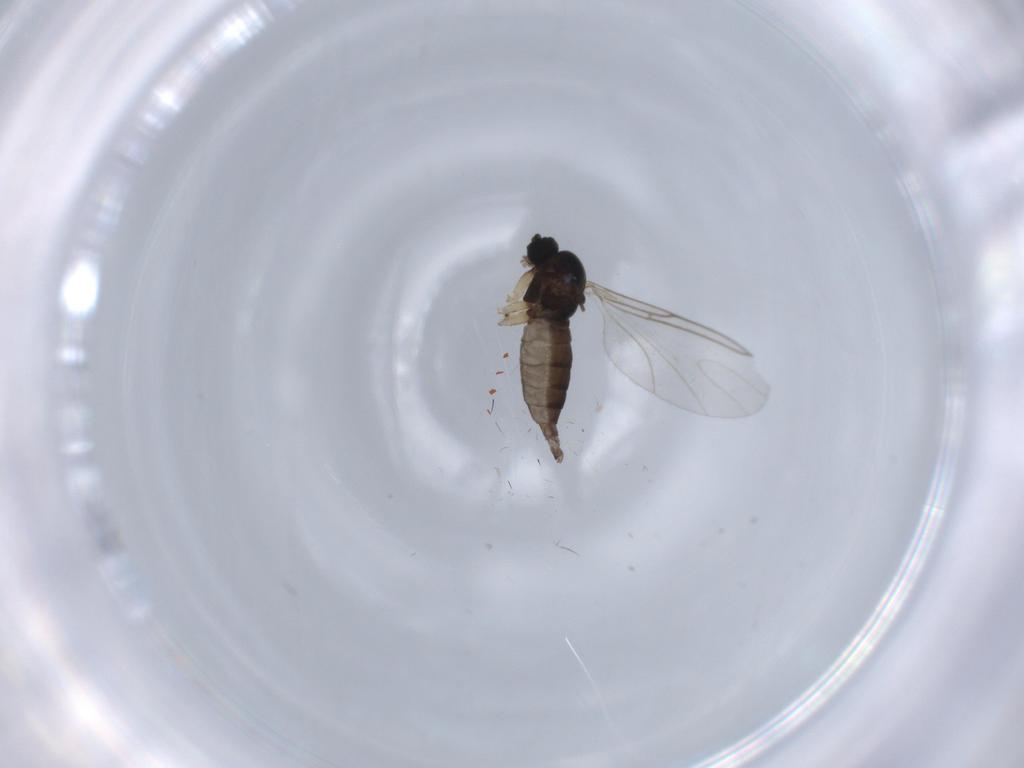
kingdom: Animalia
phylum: Arthropoda
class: Insecta
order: Diptera
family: Sciaridae
